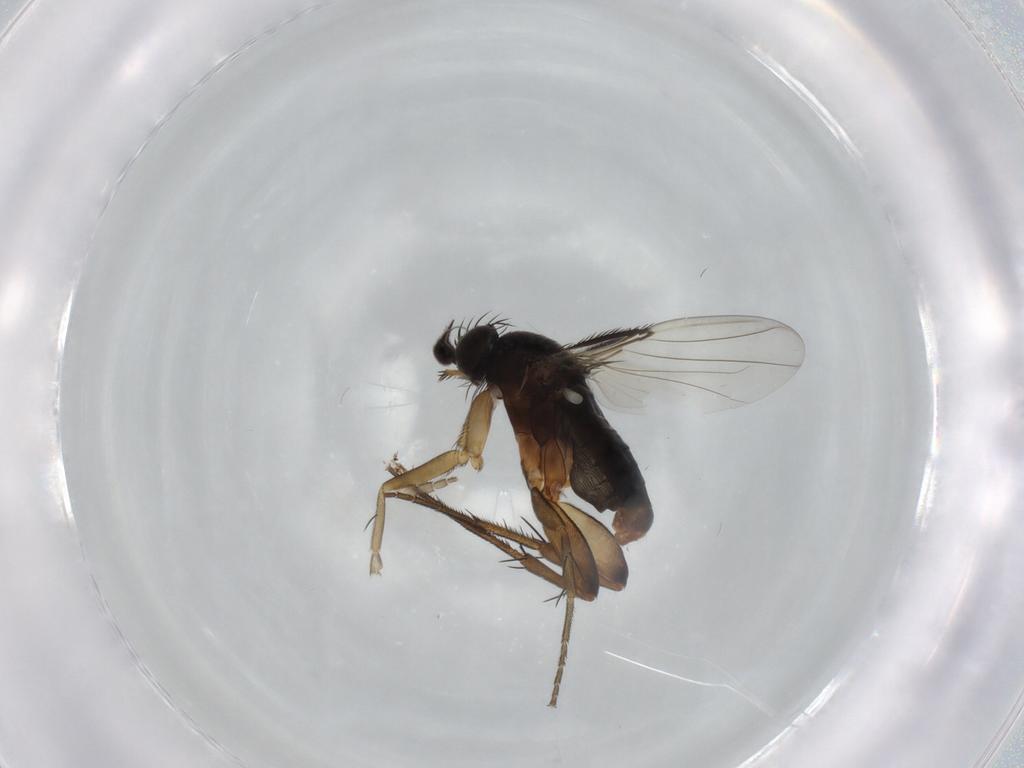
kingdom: Animalia
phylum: Arthropoda
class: Insecta
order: Diptera
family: Phoridae
